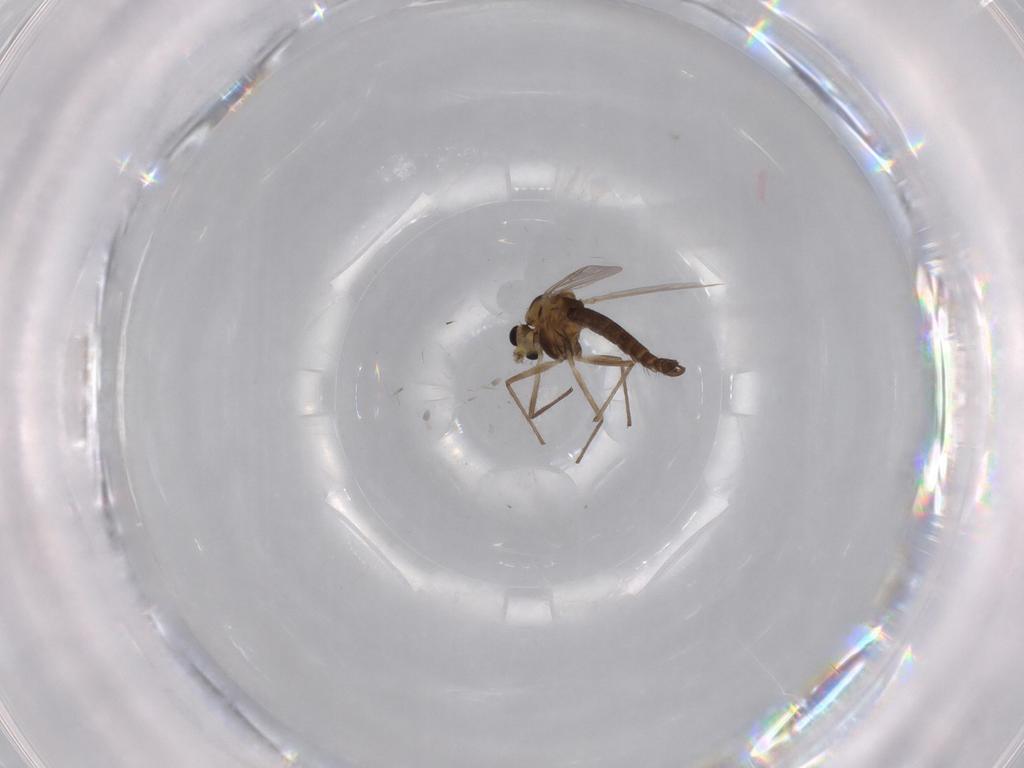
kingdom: Animalia
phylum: Arthropoda
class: Insecta
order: Diptera
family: Chironomidae
